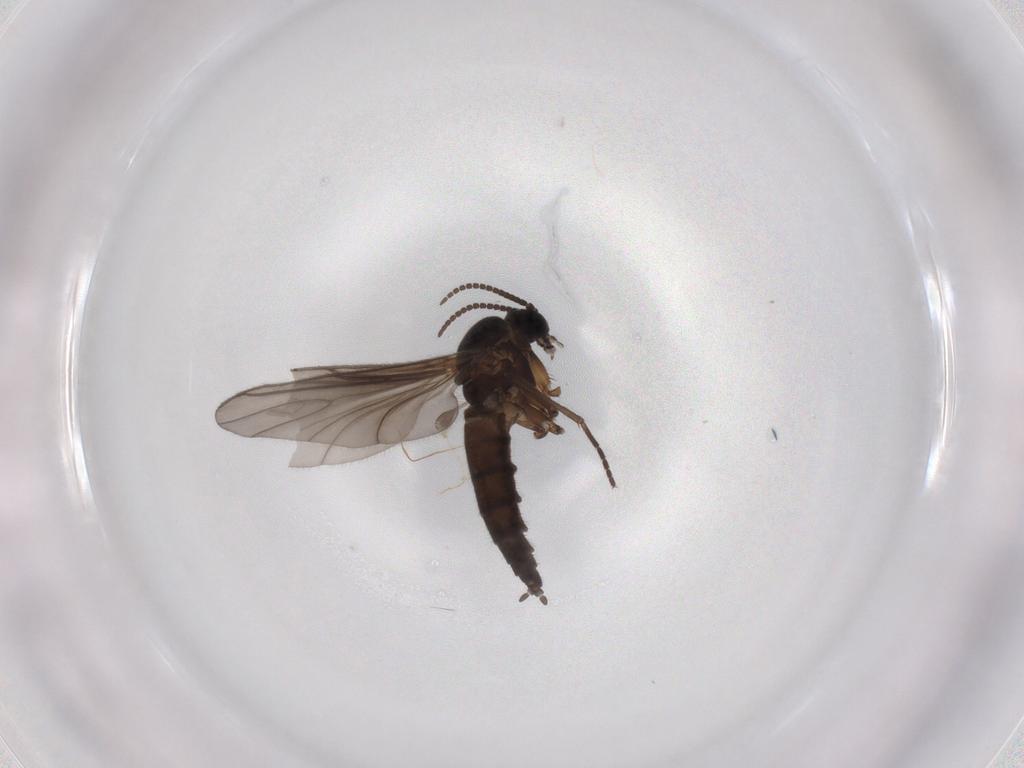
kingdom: Animalia
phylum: Arthropoda
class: Insecta
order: Diptera
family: Sciaridae
